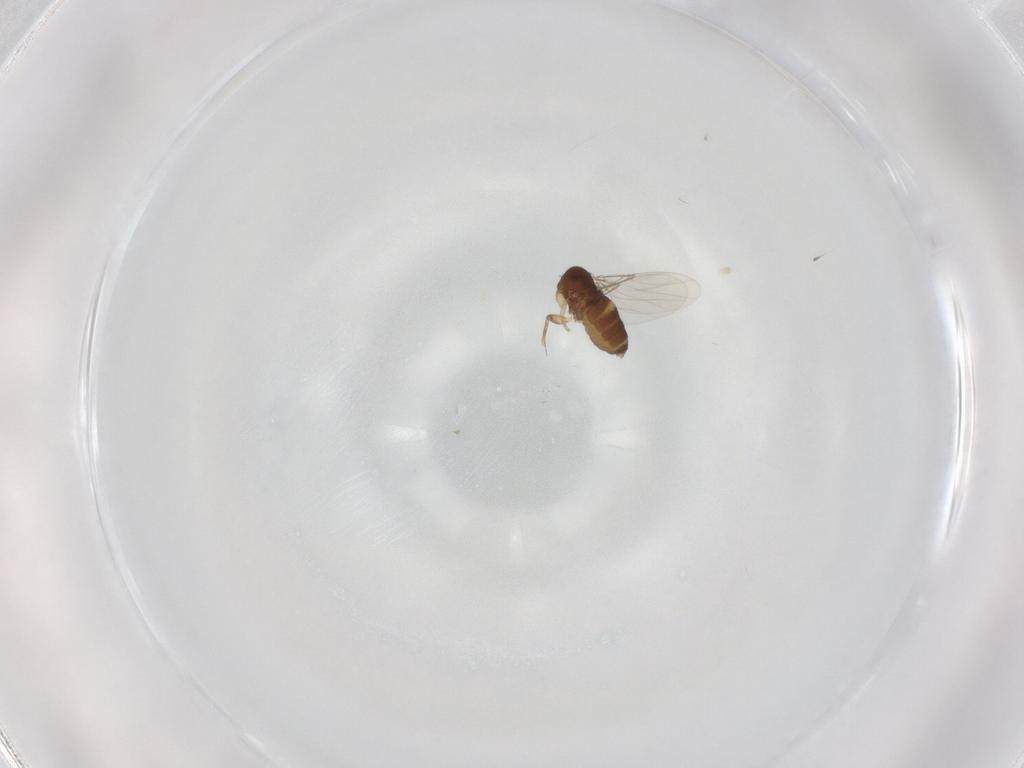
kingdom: Animalia
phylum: Arthropoda
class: Insecta
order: Diptera
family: Phoridae
